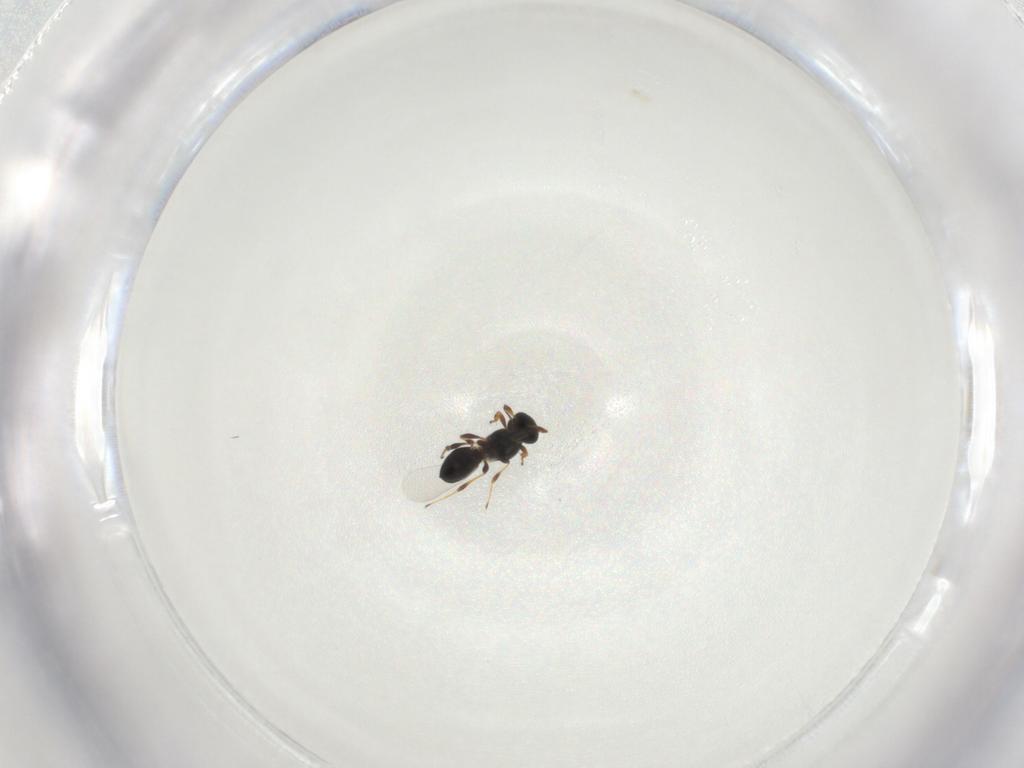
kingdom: Animalia
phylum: Arthropoda
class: Insecta
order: Hymenoptera
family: Platygastridae
